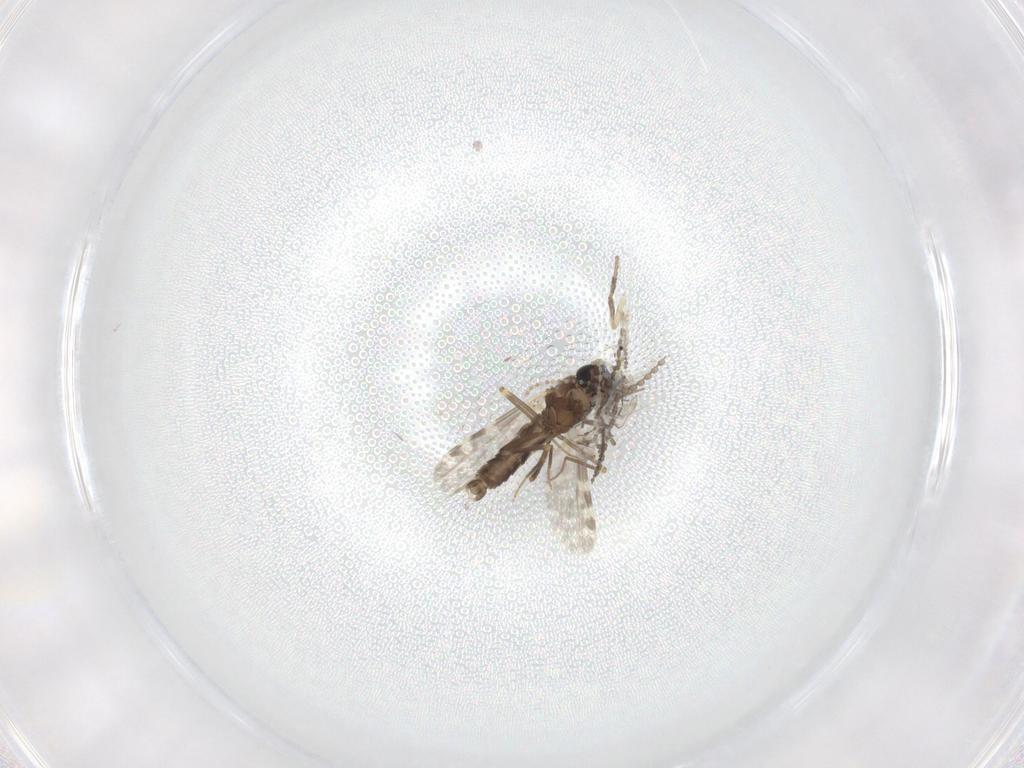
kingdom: Animalia
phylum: Arthropoda
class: Insecta
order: Diptera
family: Ceratopogonidae
